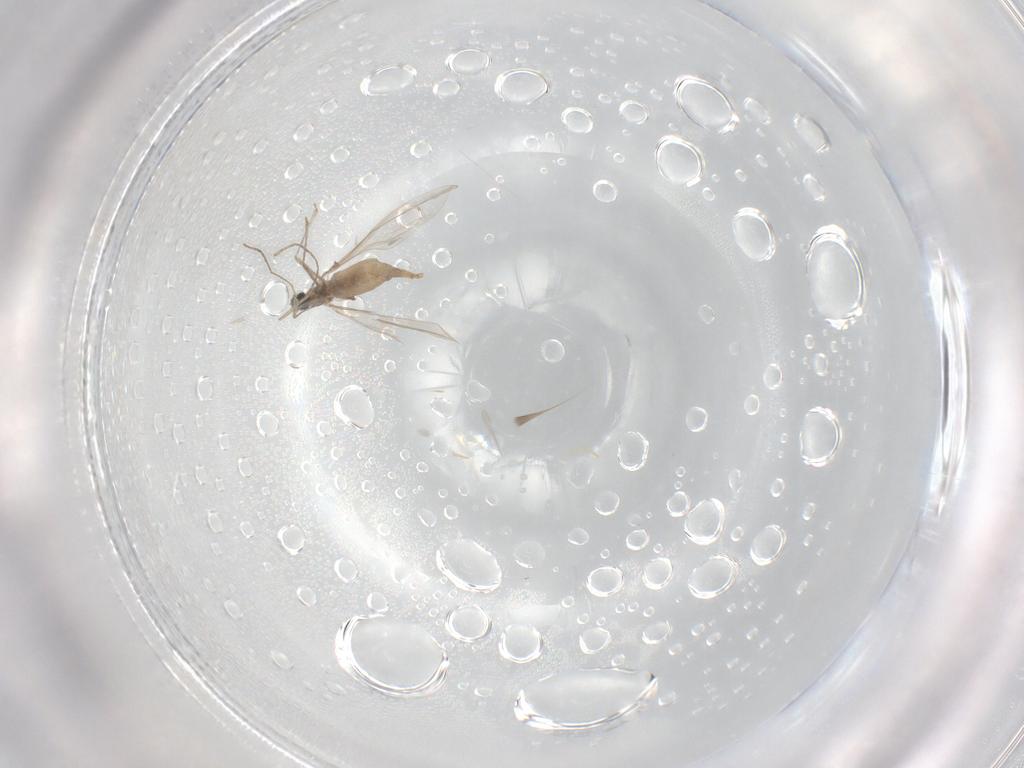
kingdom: Animalia
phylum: Arthropoda
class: Insecta
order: Diptera
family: Cecidomyiidae
